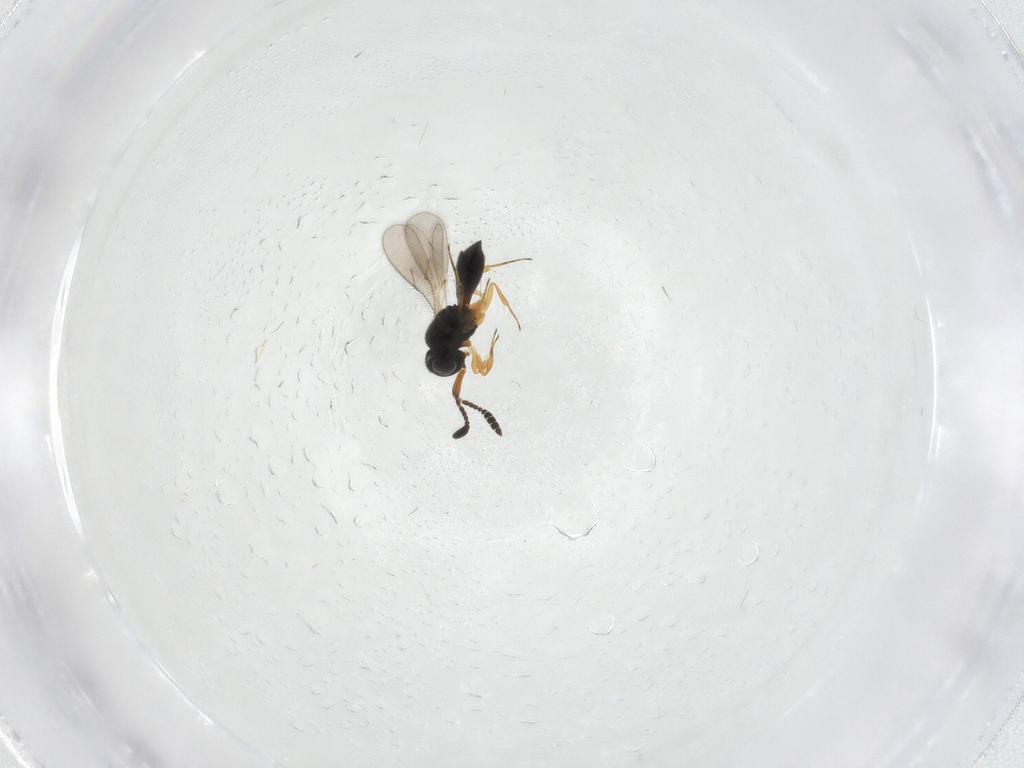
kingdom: Animalia
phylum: Arthropoda
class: Insecta
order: Hymenoptera
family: Scelionidae
